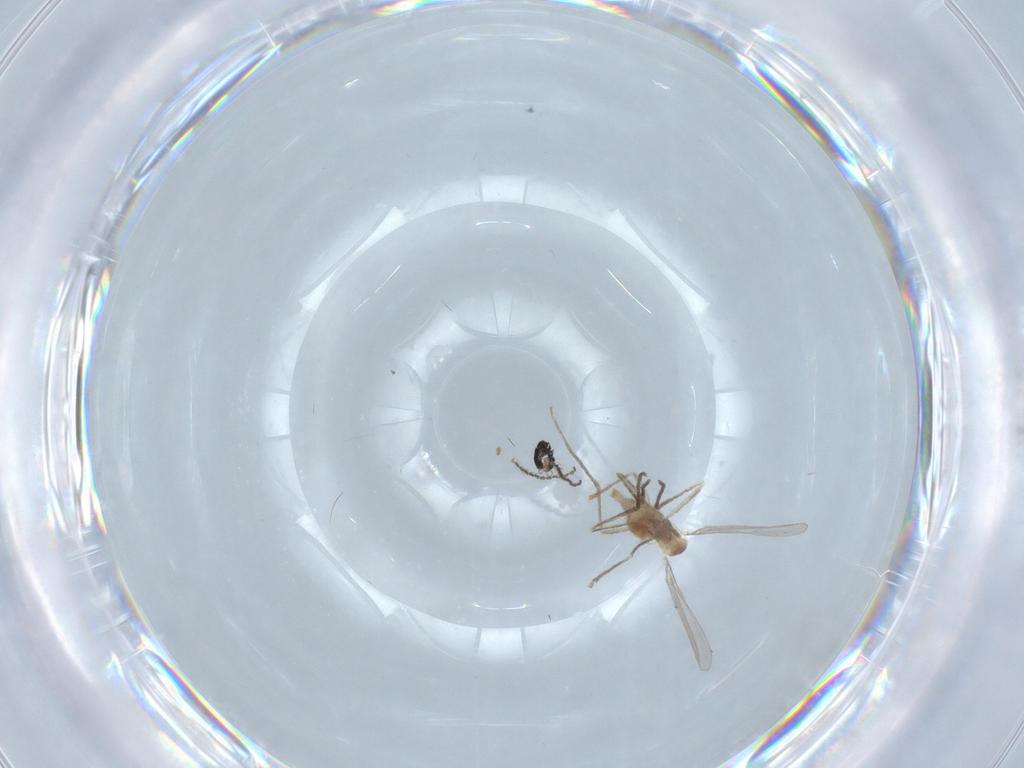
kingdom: Animalia
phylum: Arthropoda
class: Insecta
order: Diptera
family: Cecidomyiidae
